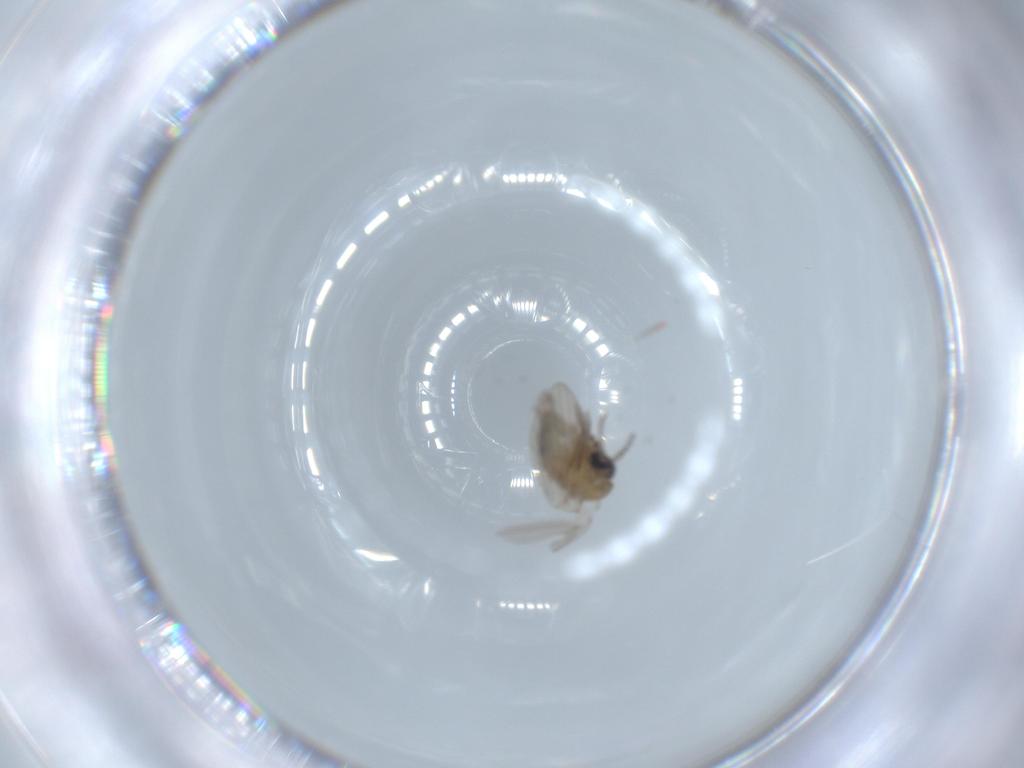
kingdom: Animalia
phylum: Arthropoda
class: Insecta
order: Diptera
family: Psychodidae
